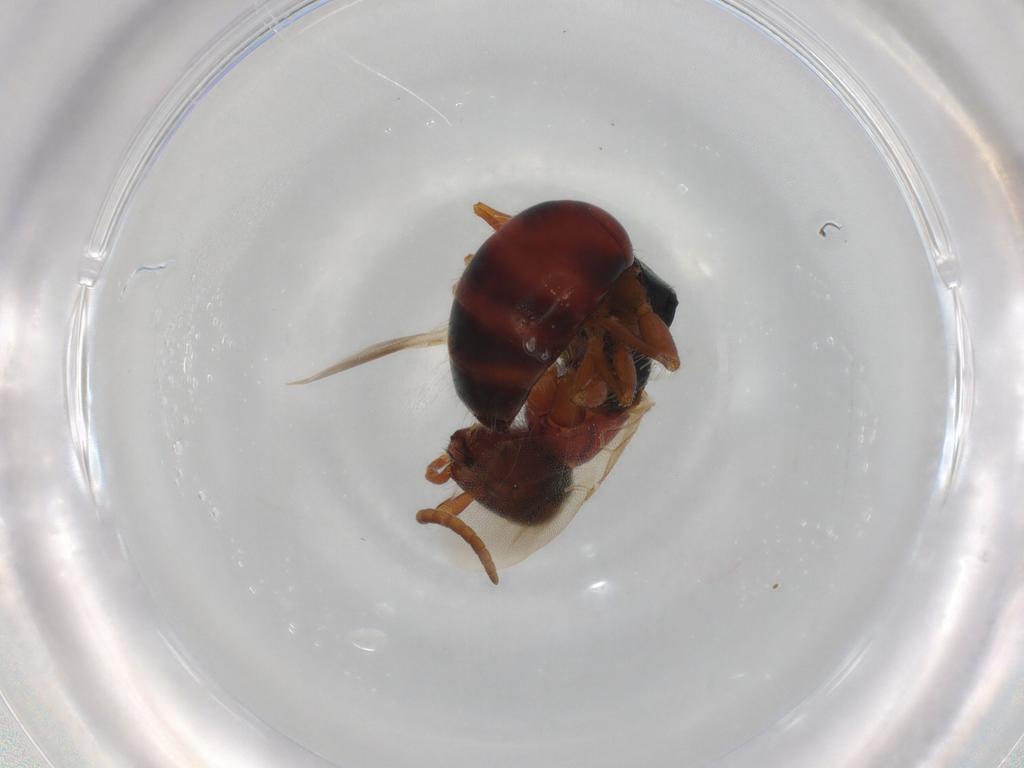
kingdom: Animalia
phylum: Arthropoda
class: Insecta
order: Hymenoptera
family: Bethylidae
